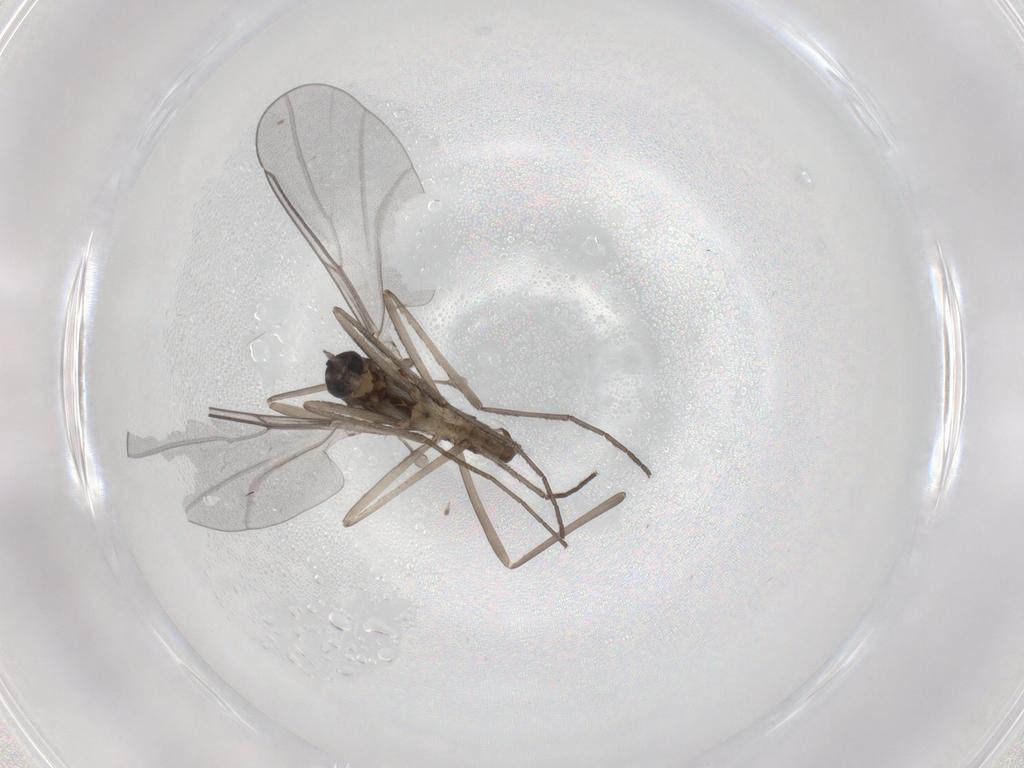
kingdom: Animalia
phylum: Arthropoda
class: Insecta
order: Diptera
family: Cecidomyiidae
